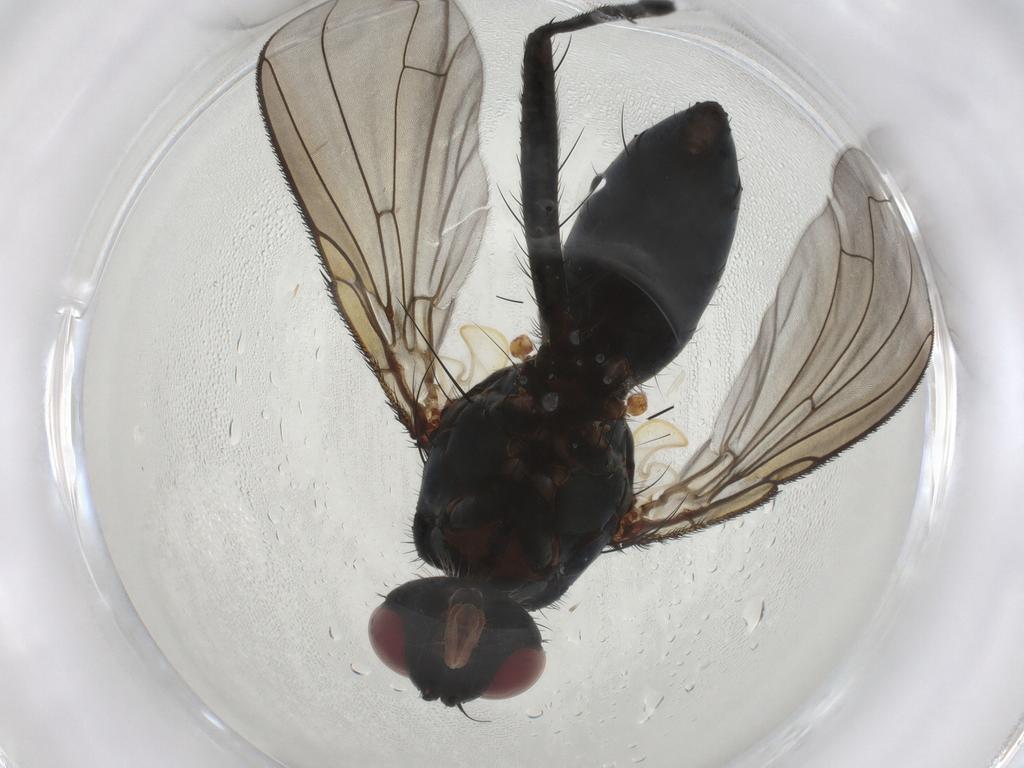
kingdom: Animalia
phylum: Arthropoda
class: Insecta
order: Diptera
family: Tachinidae
